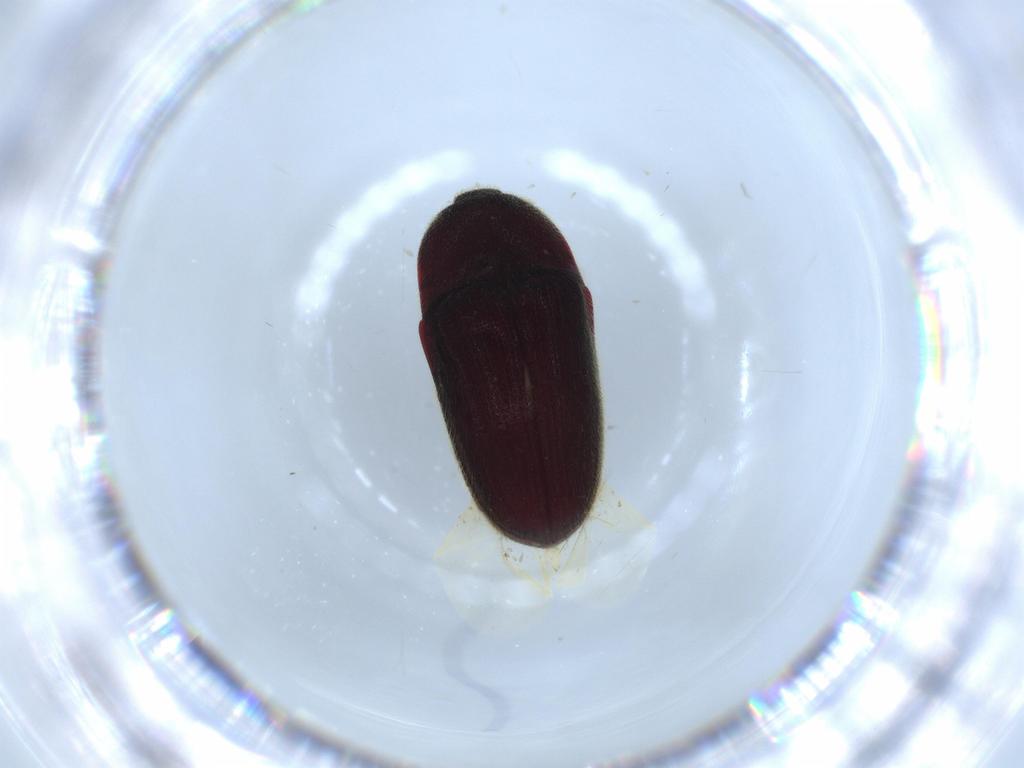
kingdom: Animalia
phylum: Arthropoda
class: Insecta
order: Coleoptera
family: Throscidae
